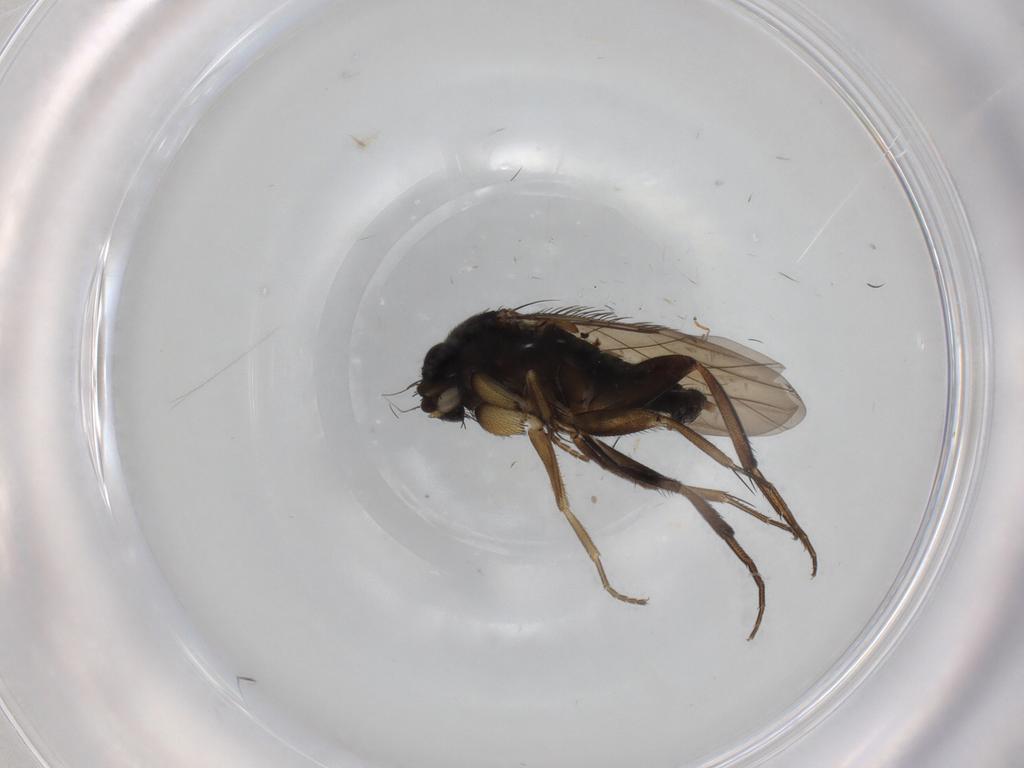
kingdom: Animalia
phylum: Arthropoda
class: Insecta
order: Diptera
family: Phoridae
